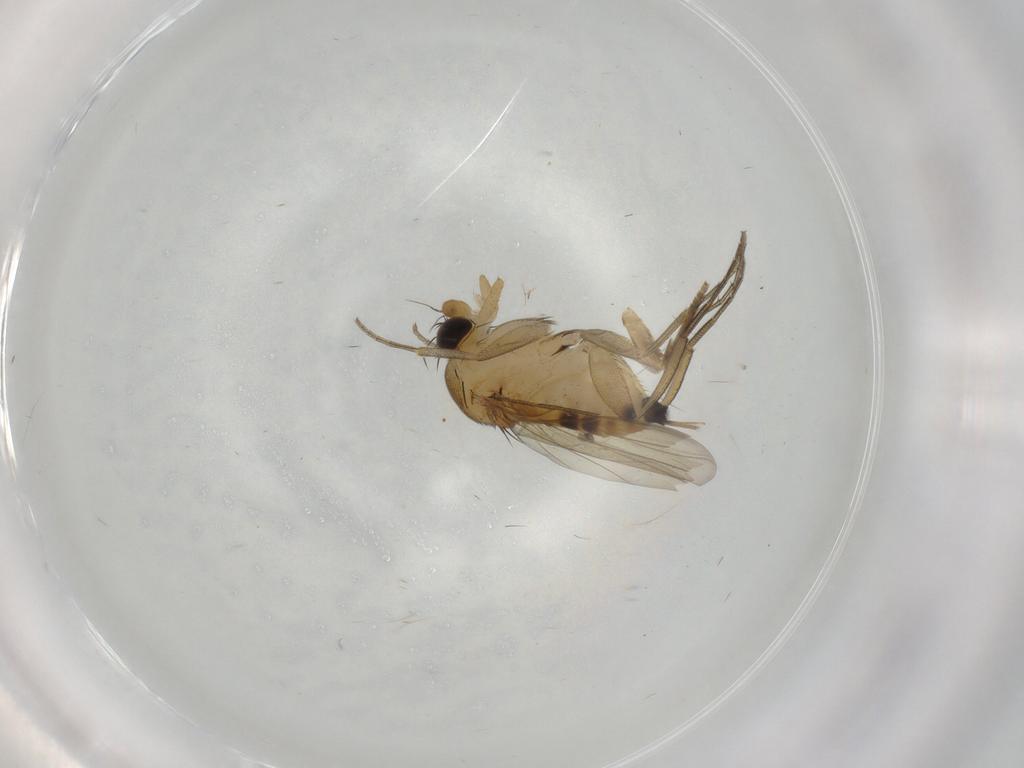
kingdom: Animalia
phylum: Arthropoda
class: Insecta
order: Diptera
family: Phoridae
